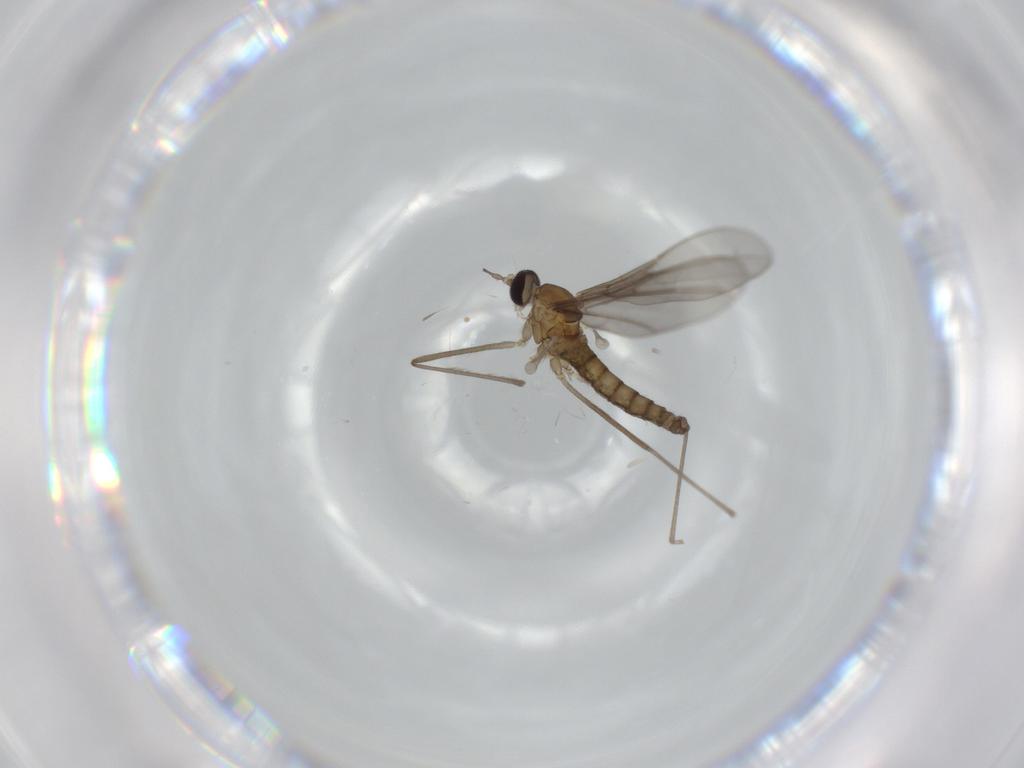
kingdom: Animalia
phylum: Arthropoda
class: Insecta
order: Diptera
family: Cecidomyiidae
